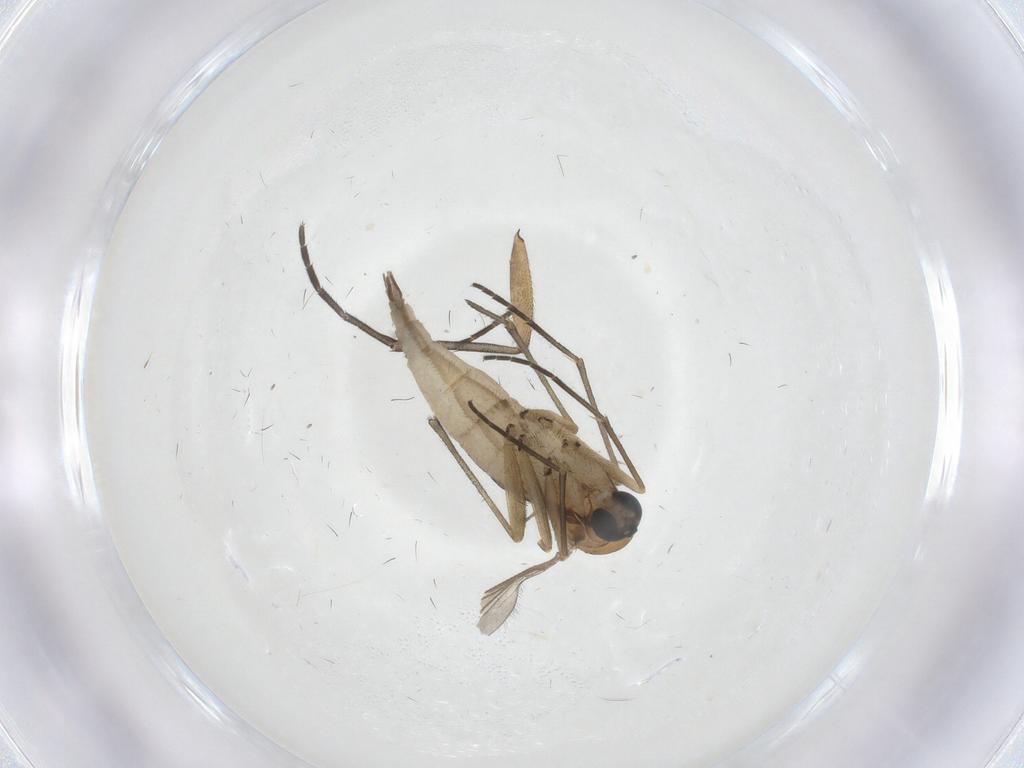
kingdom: Animalia
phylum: Arthropoda
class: Insecta
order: Diptera
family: Sciaridae
